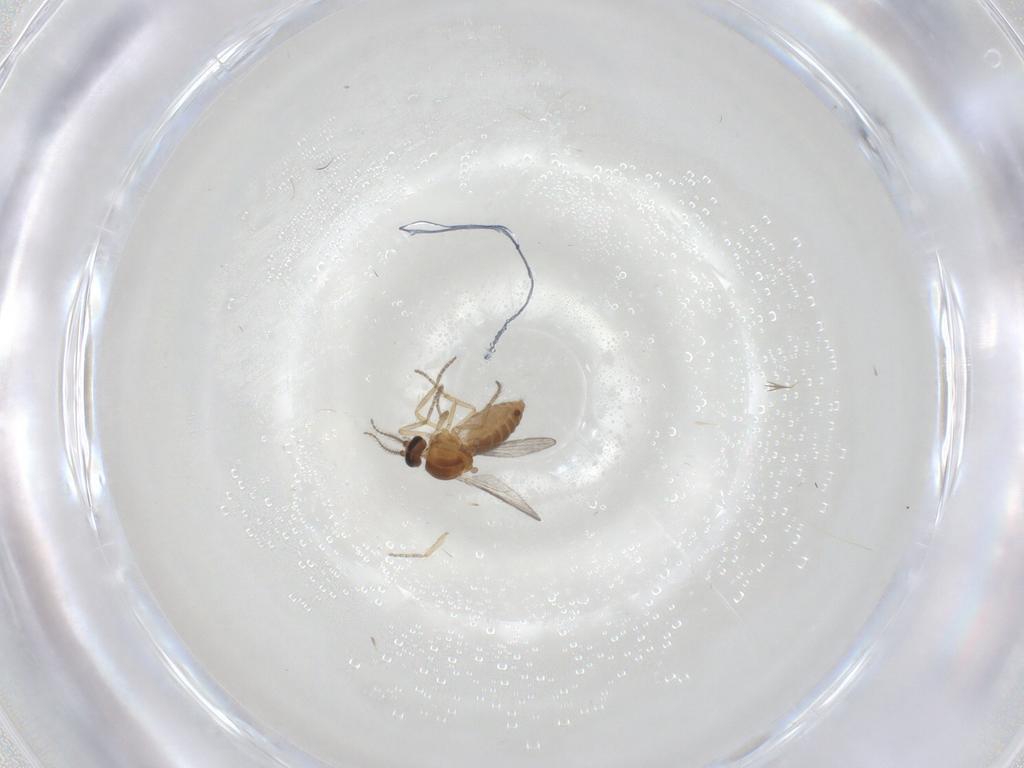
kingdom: Animalia
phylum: Arthropoda
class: Insecta
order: Diptera
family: Ceratopogonidae
